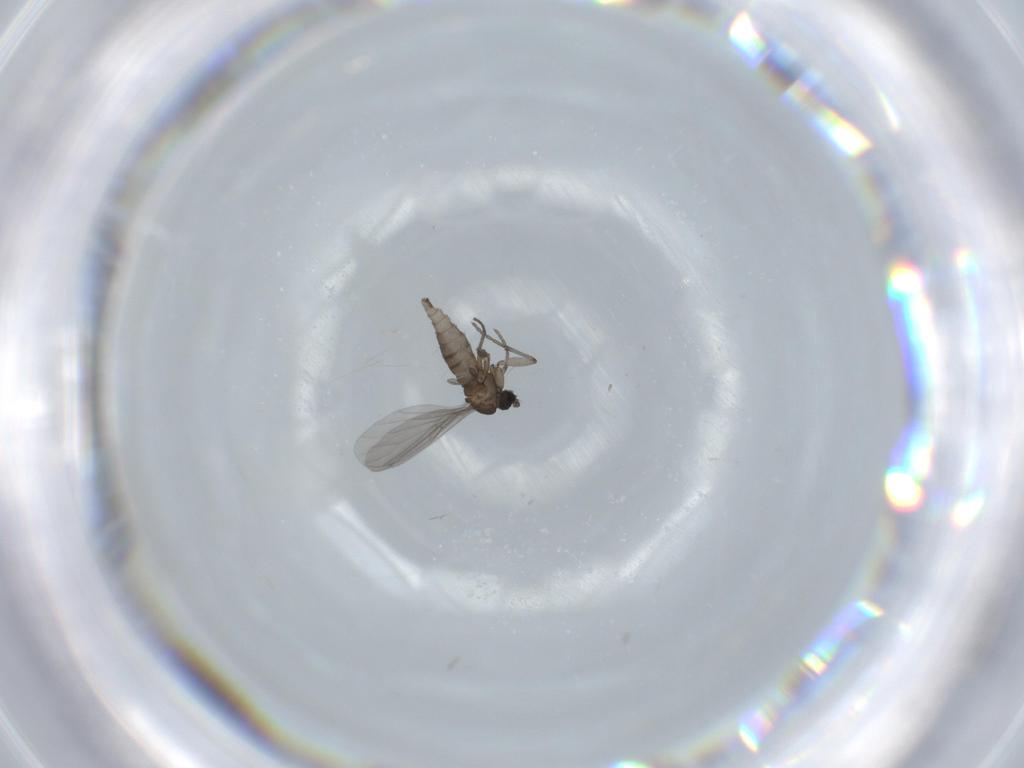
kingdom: Animalia
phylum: Arthropoda
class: Insecta
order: Diptera
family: Sciaridae
